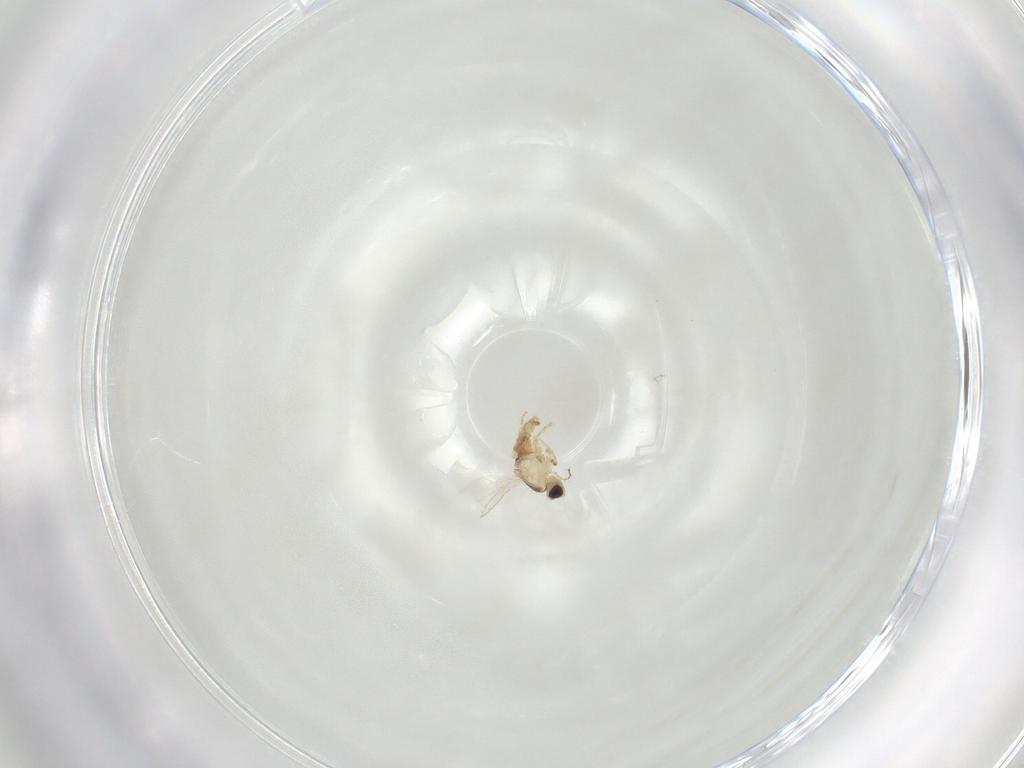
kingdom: Animalia
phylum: Arthropoda
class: Insecta
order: Diptera
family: Agromyzidae
